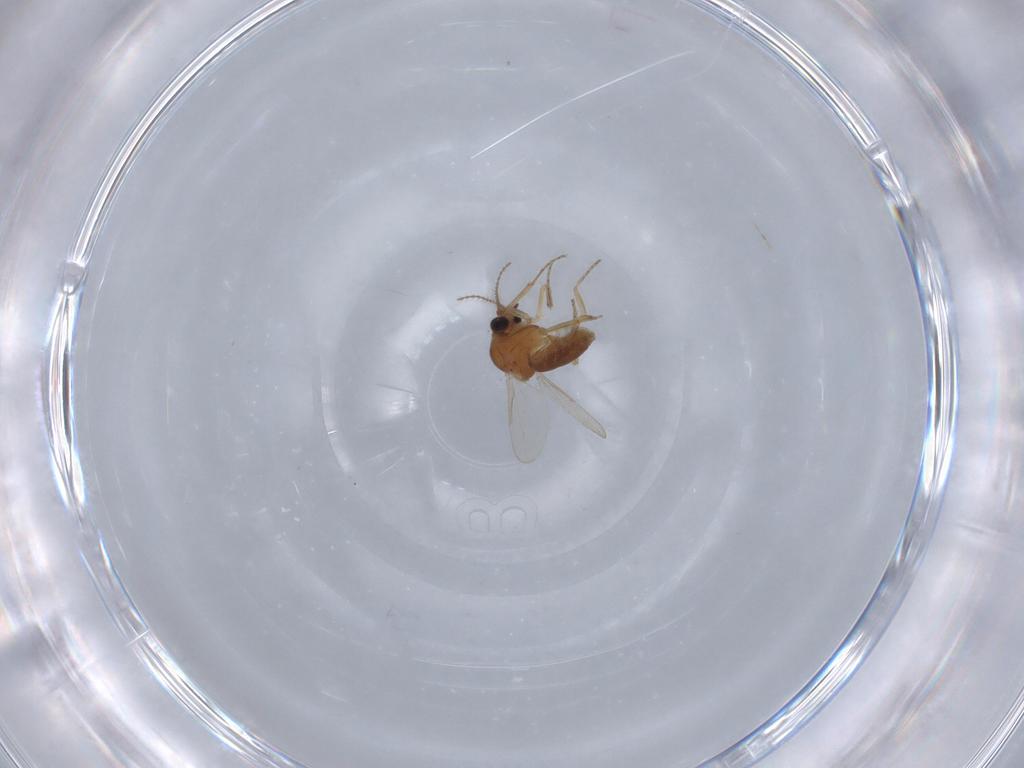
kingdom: Animalia
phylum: Arthropoda
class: Insecta
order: Diptera
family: Ceratopogonidae
